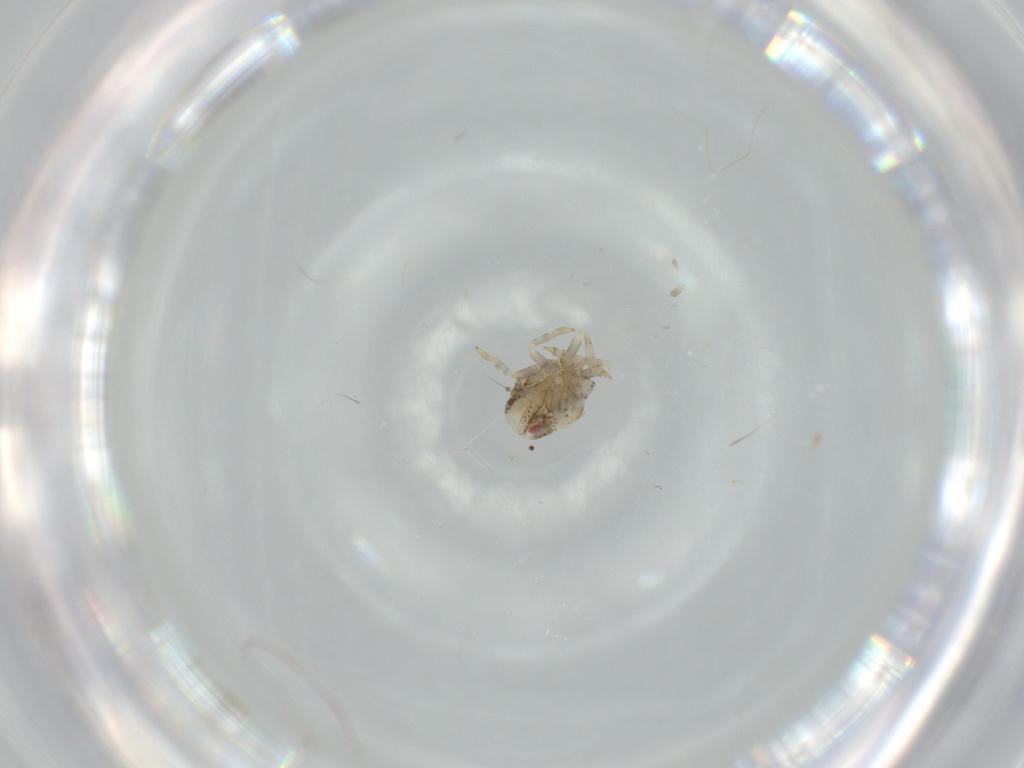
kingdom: Animalia
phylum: Arthropoda
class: Insecta
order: Hemiptera
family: Acanaloniidae
